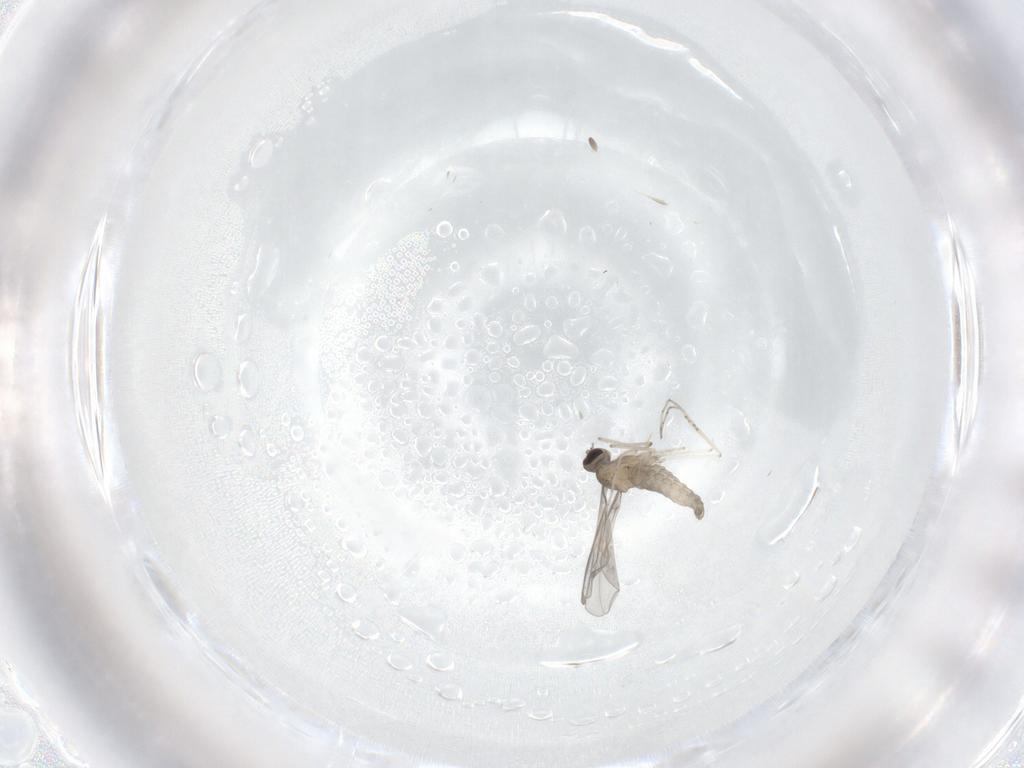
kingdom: Animalia
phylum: Arthropoda
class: Insecta
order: Diptera
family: Cecidomyiidae
